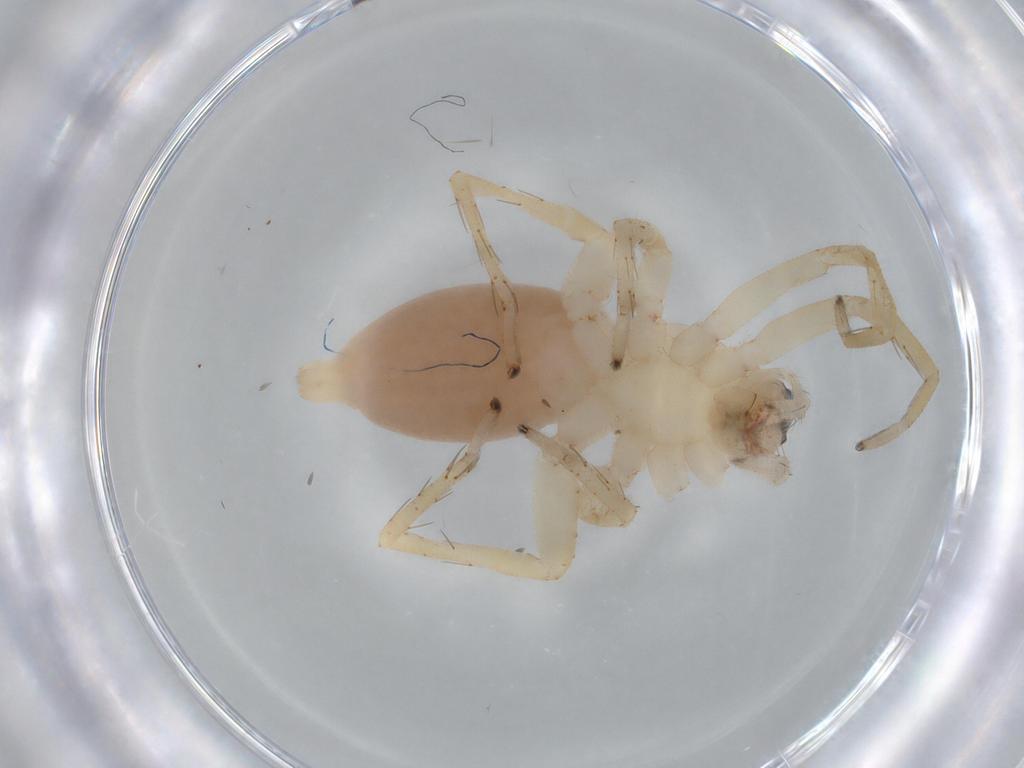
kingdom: Animalia
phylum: Arthropoda
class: Arachnida
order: Araneae
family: Clubionidae
